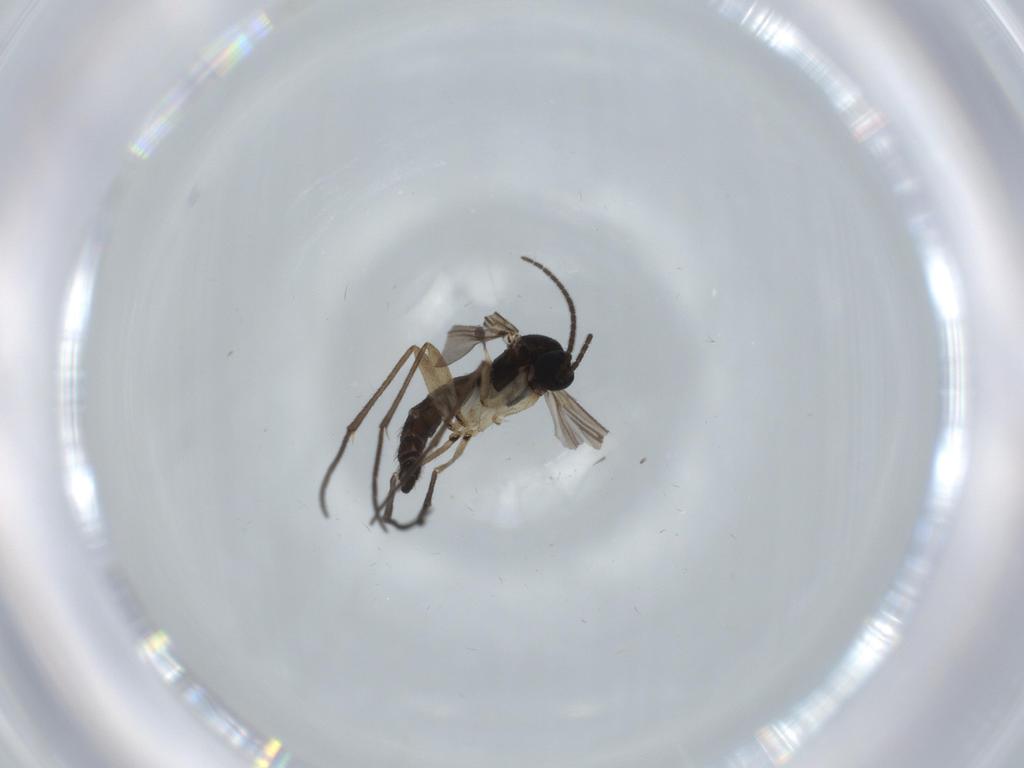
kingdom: Animalia
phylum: Arthropoda
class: Insecta
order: Diptera
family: Sciaridae
